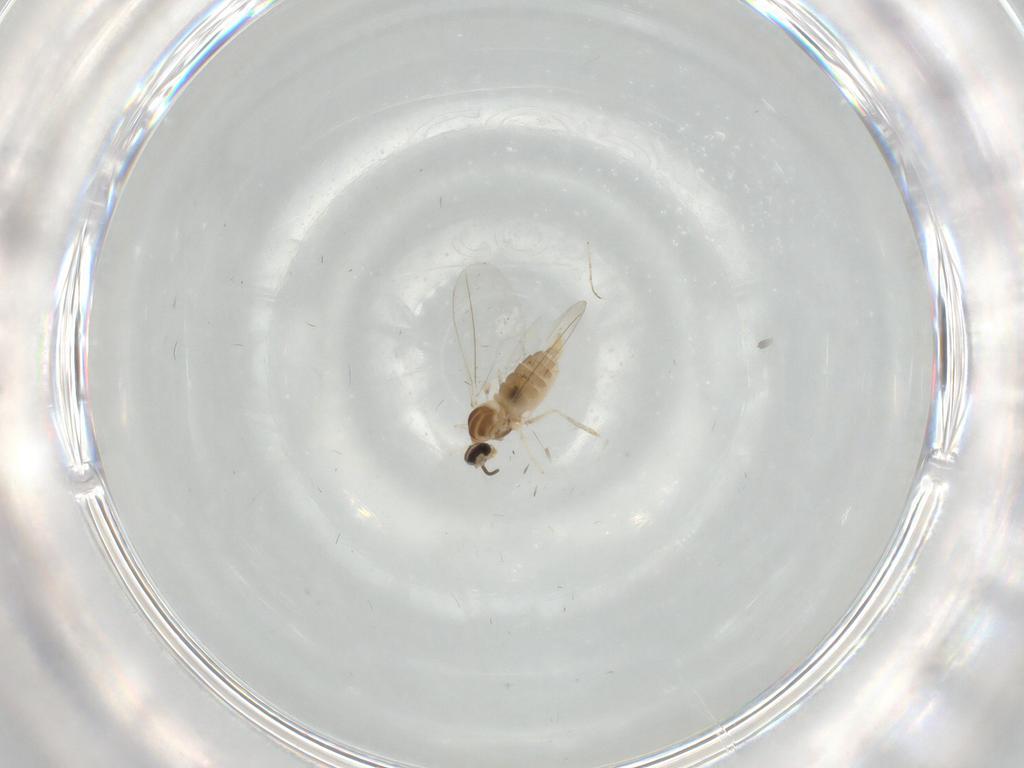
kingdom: Animalia
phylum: Arthropoda
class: Insecta
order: Diptera
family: Cecidomyiidae
